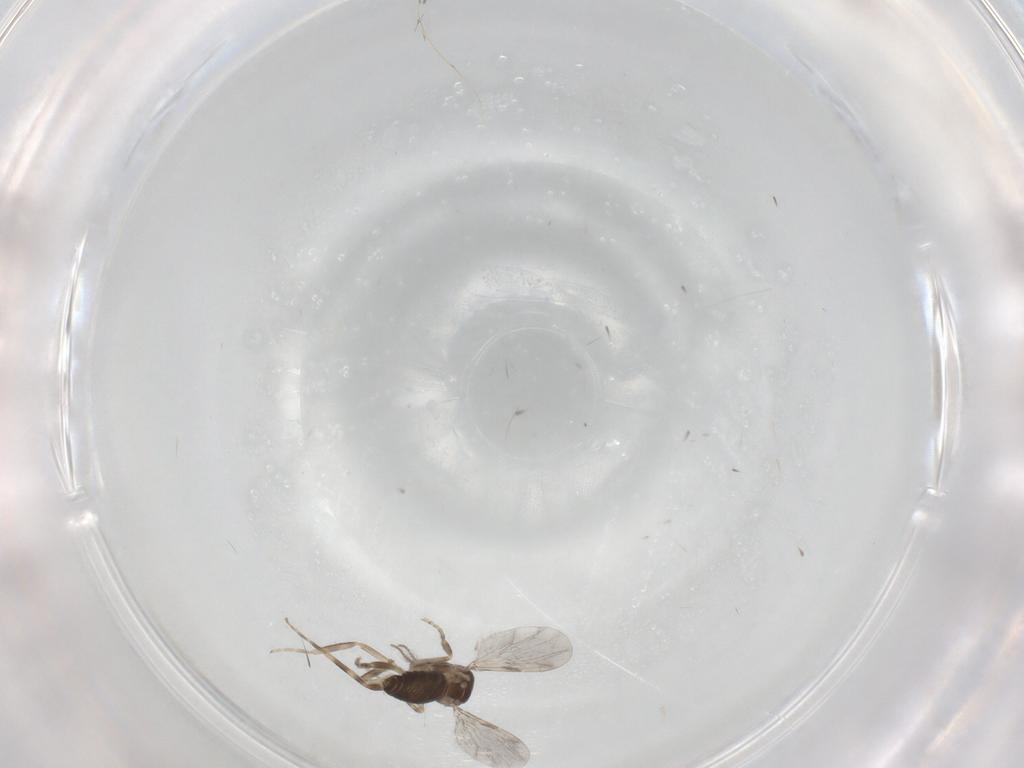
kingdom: Animalia
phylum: Arthropoda
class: Insecta
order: Diptera
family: Ceratopogonidae
